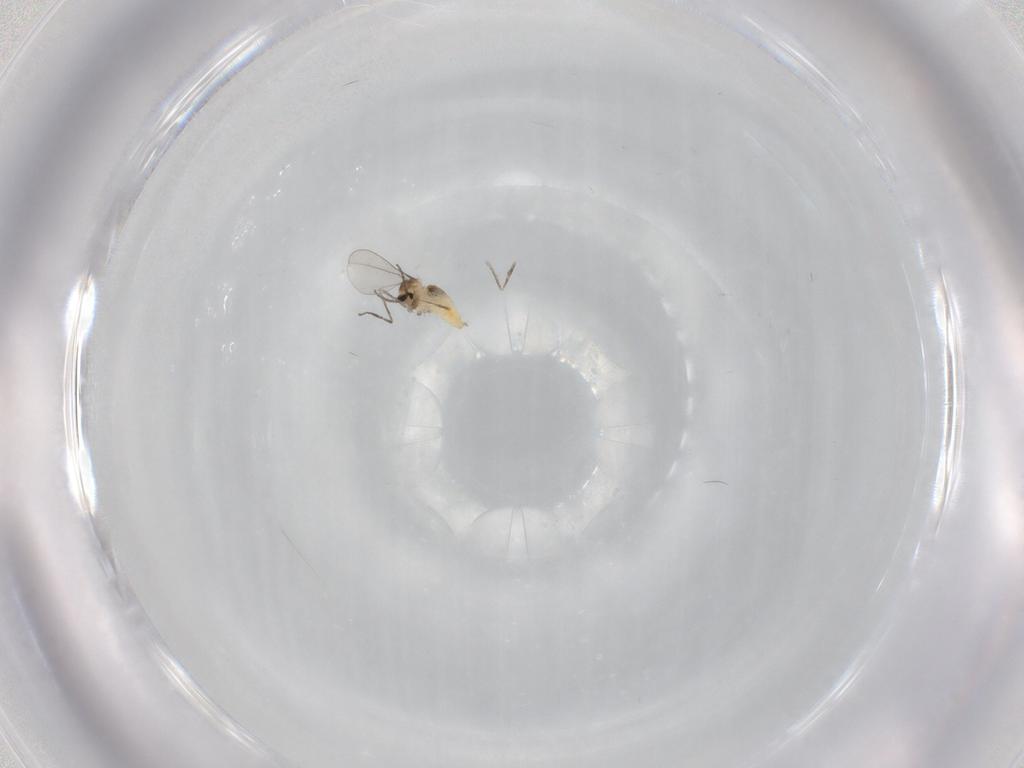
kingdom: Animalia
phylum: Arthropoda
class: Insecta
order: Diptera
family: Cecidomyiidae
